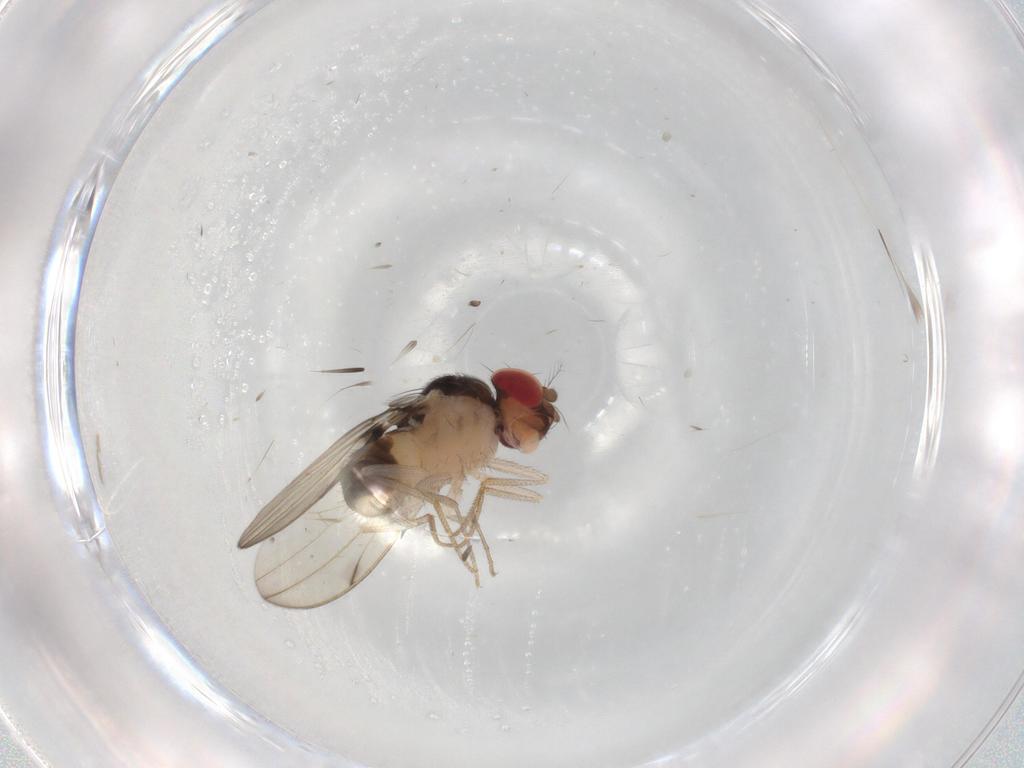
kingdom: Animalia
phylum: Arthropoda
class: Insecta
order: Diptera
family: Drosophilidae
